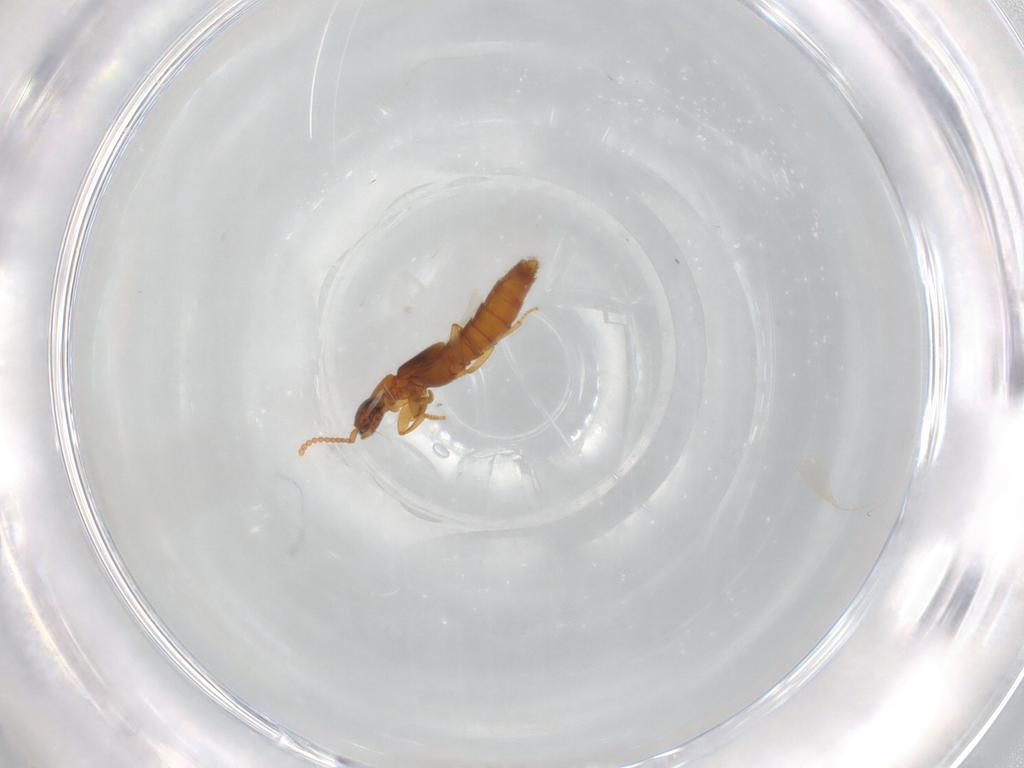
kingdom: Animalia
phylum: Arthropoda
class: Insecta
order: Coleoptera
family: Staphylinidae
